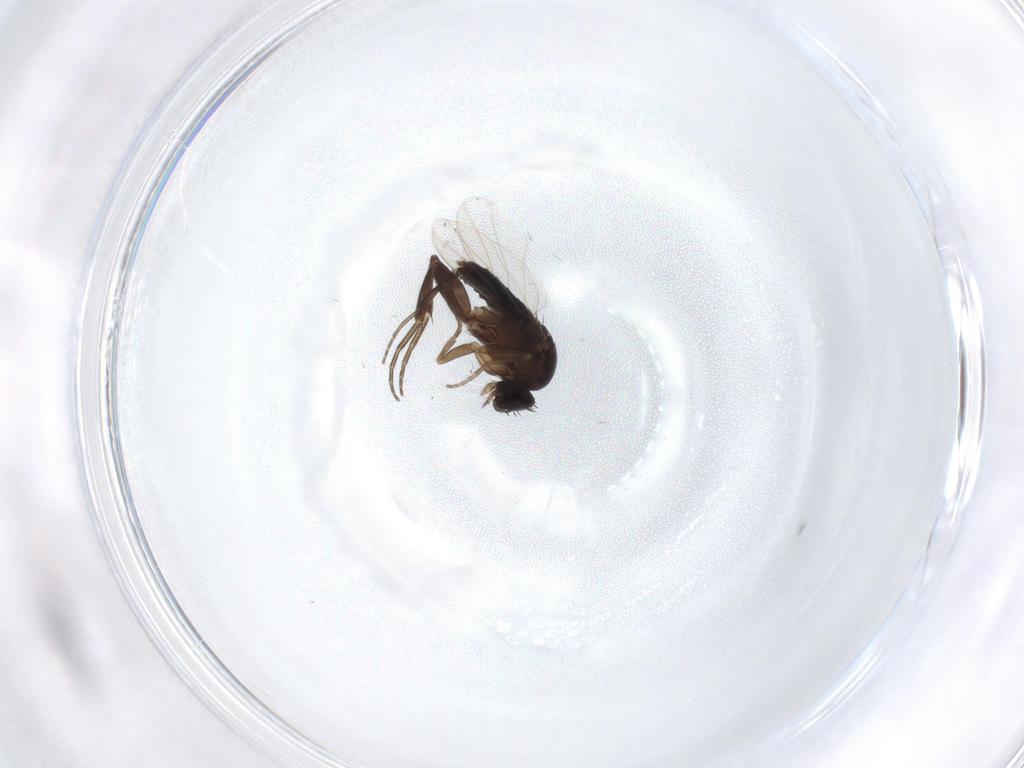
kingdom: Animalia
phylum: Arthropoda
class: Insecta
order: Diptera
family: Phoridae
